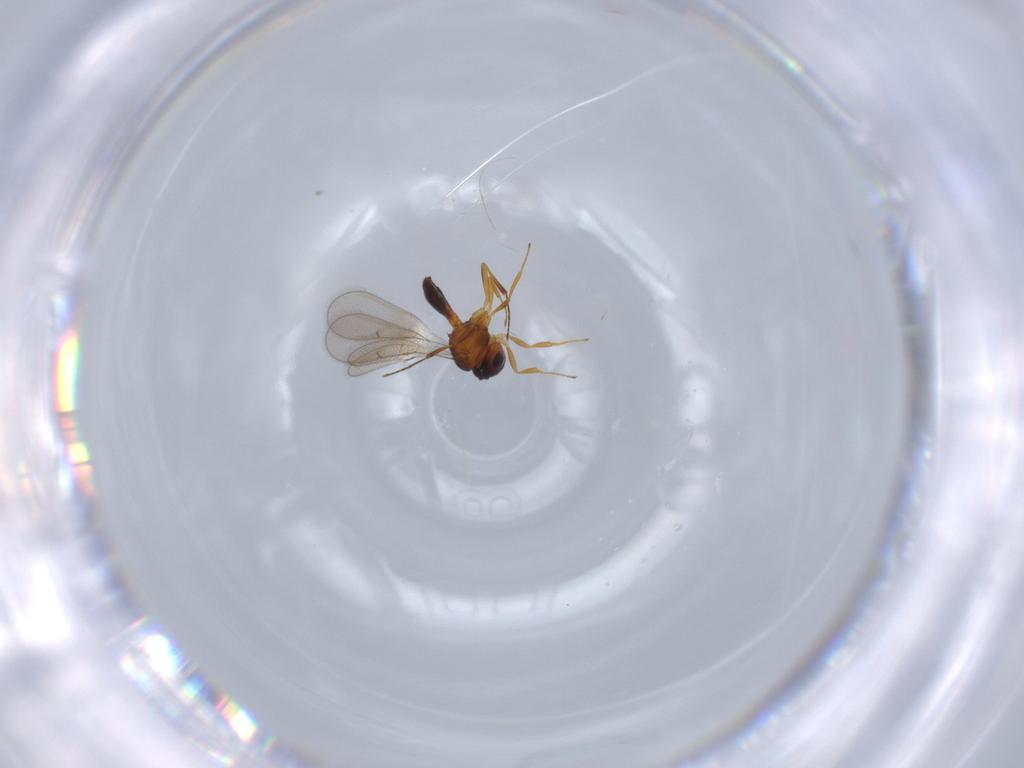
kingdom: Animalia
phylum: Arthropoda
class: Insecta
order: Hymenoptera
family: Scelionidae
